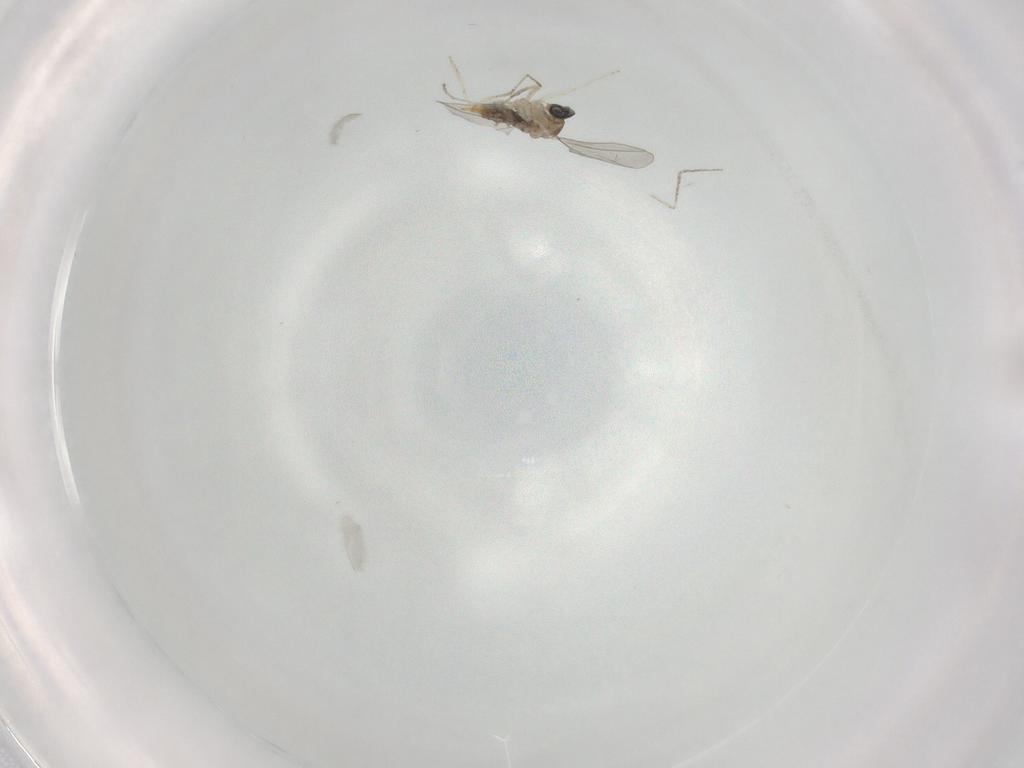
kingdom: Animalia
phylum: Arthropoda
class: Insecta
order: Diptera
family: Cecidomyiidae
